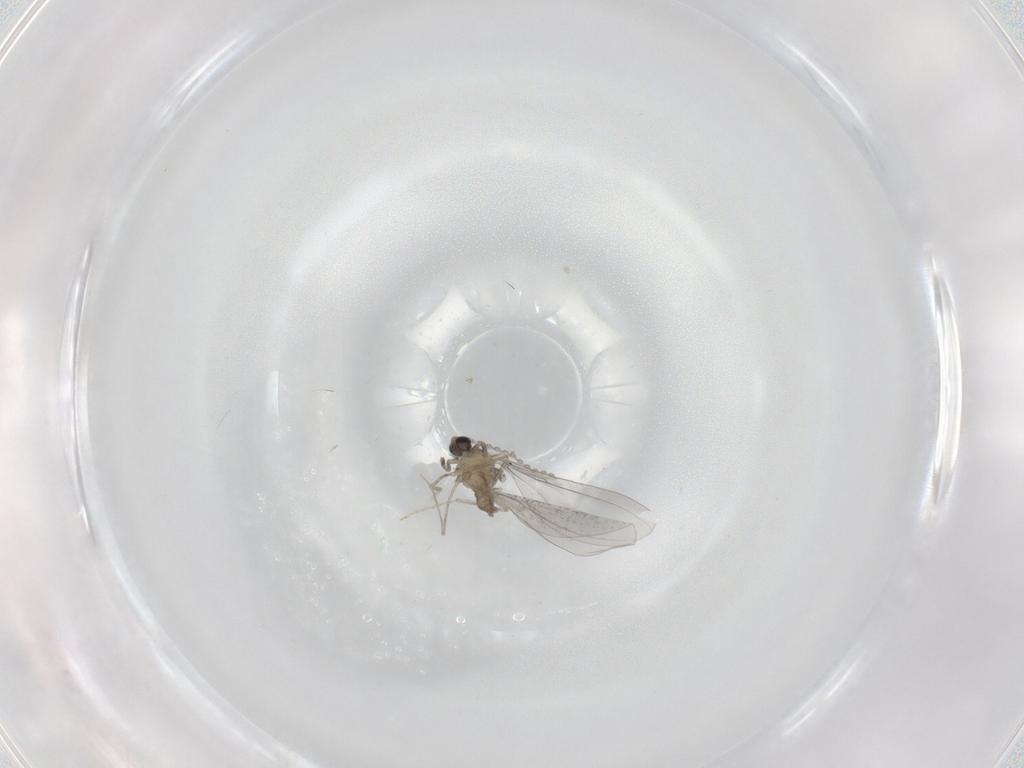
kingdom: Animalia
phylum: Arthropoda
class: Insecta
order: Diptera
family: Cecidomyiidae
